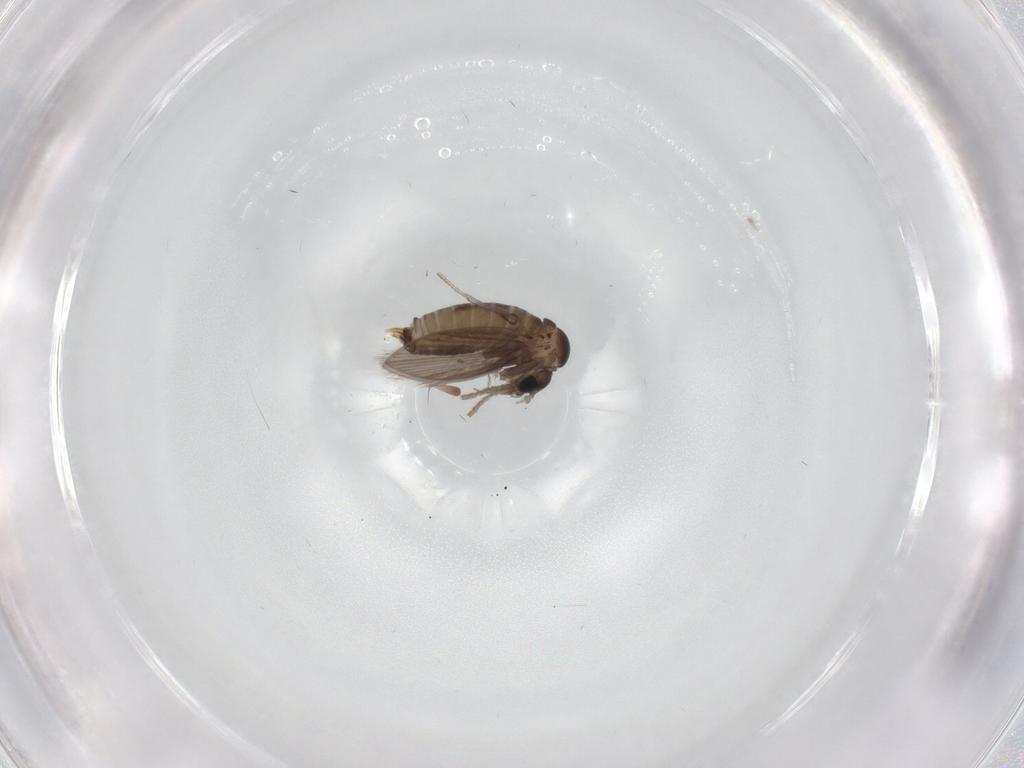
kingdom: Animalia
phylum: Arthropoda
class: Insecta
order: Diptera
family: Psychodidae
